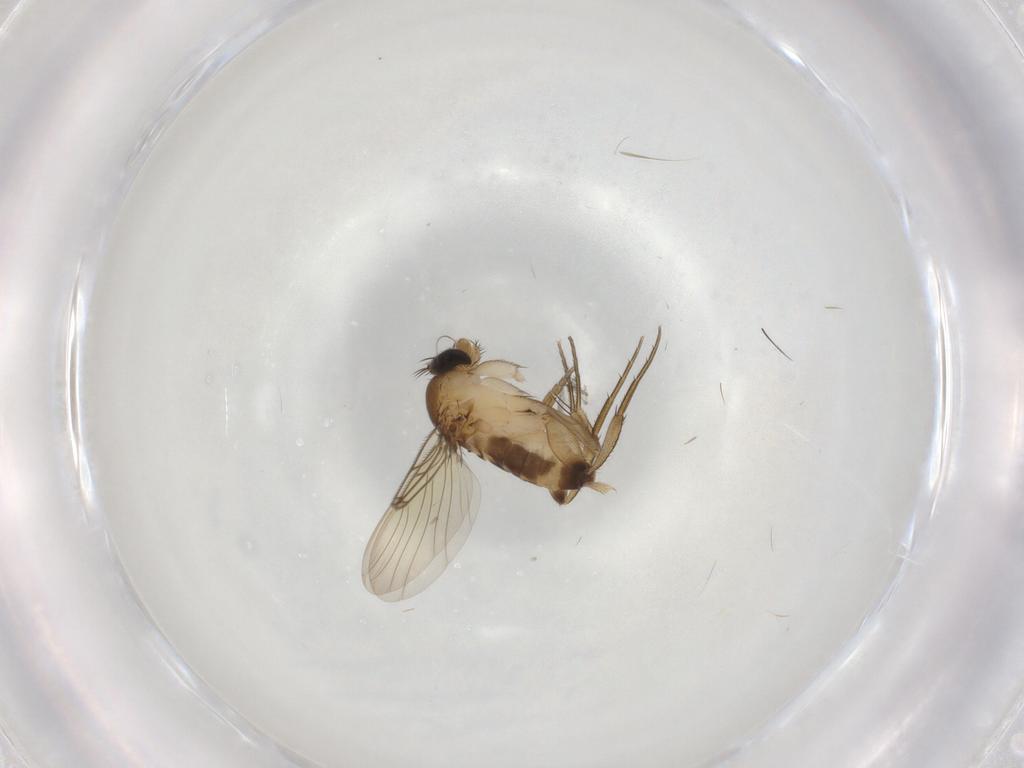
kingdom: Animalia
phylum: Arthropoda
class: Insecta
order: Diptera
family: Phoridae
